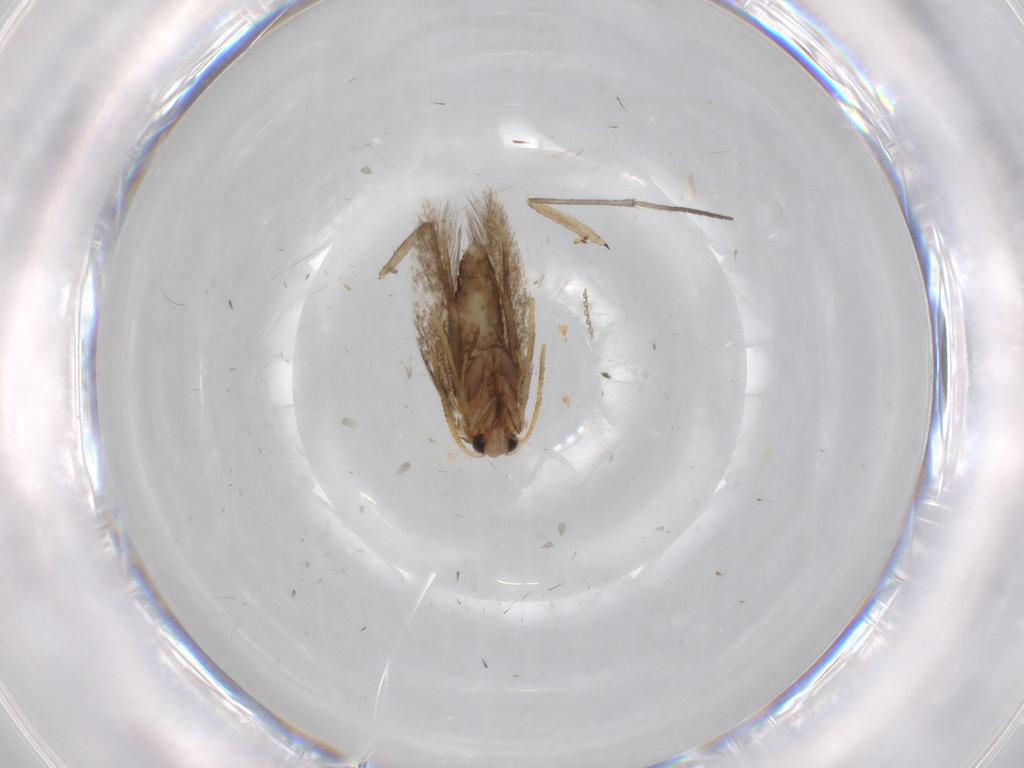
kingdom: Animalia
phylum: Arthropoda
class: Insecta
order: Lepidoptera
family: Nepticulidae
